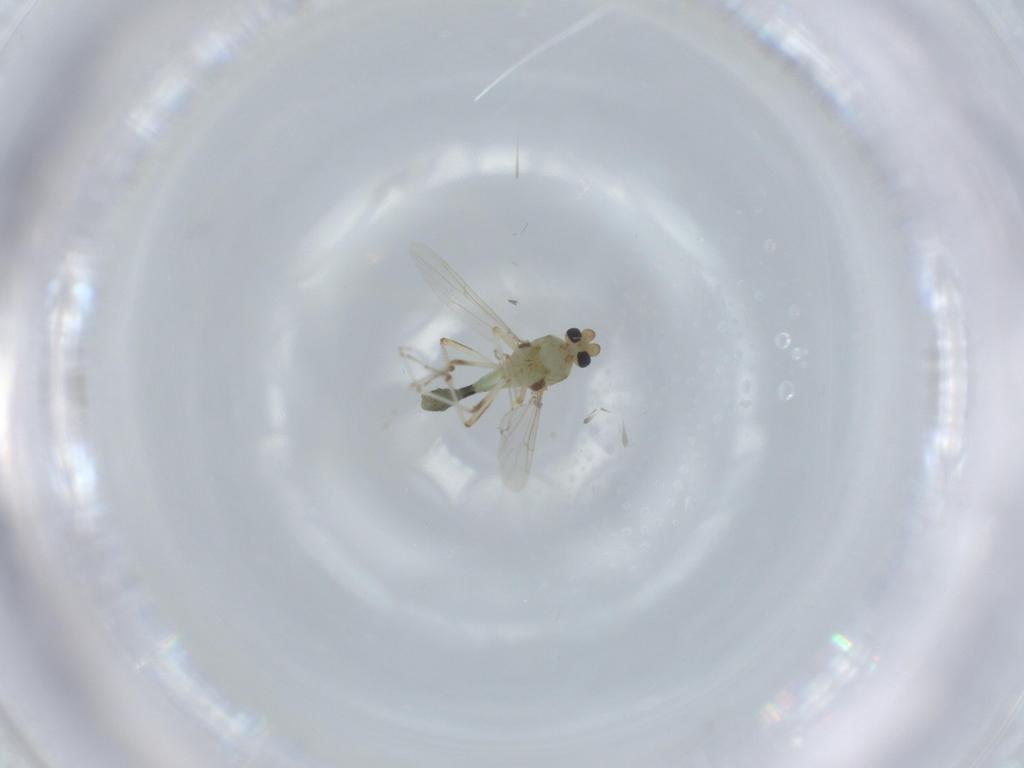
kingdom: Animalia
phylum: Arthropoda
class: Insecta
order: Diptera
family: Ceratopogonidae
